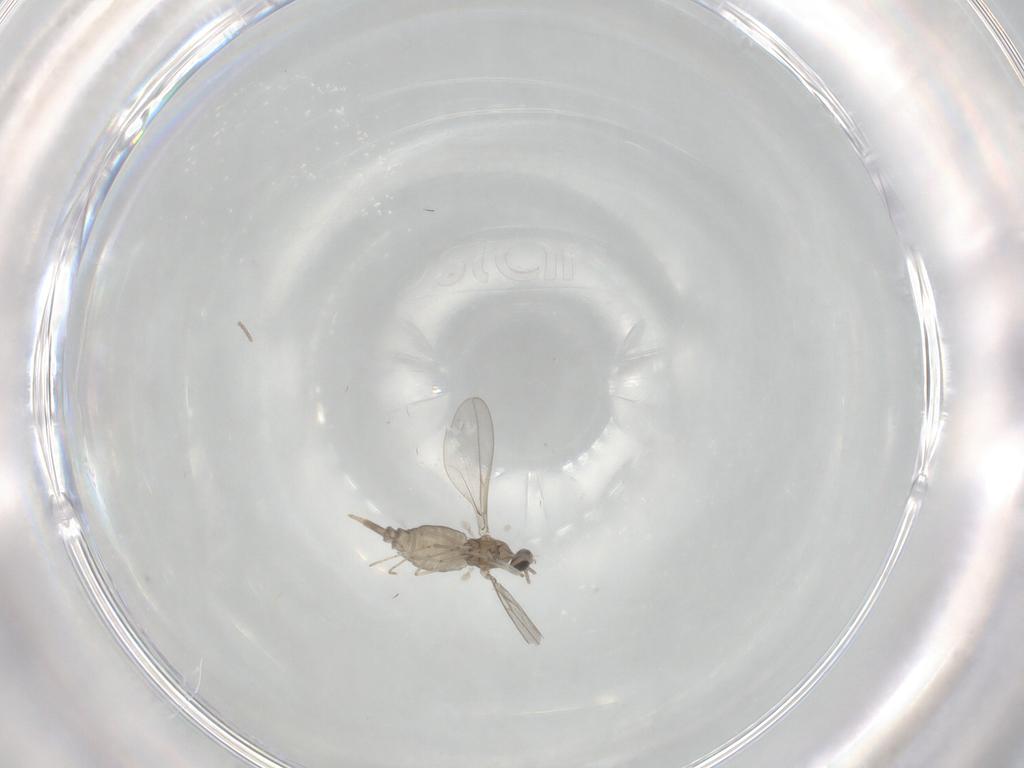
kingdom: Animalia
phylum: Arthropoda
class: Insecta
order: Diptera
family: Cecidomyiidae
